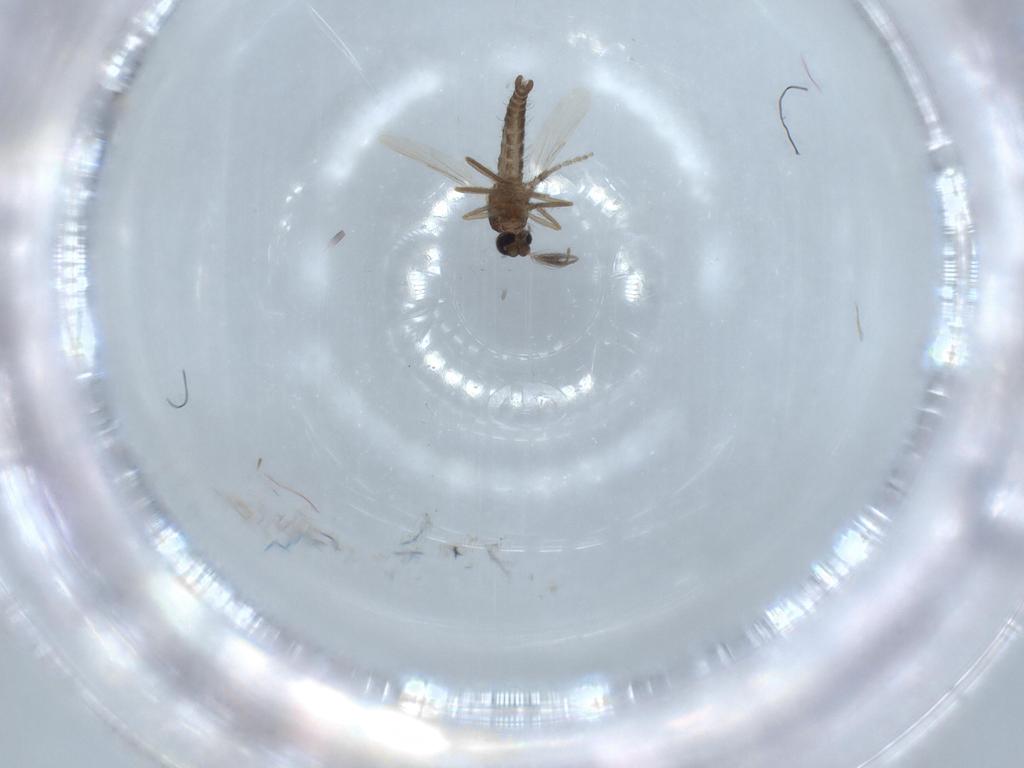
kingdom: Animalia
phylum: Arthropoda
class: Insecta
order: Diptera
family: Ceratopogonidae
